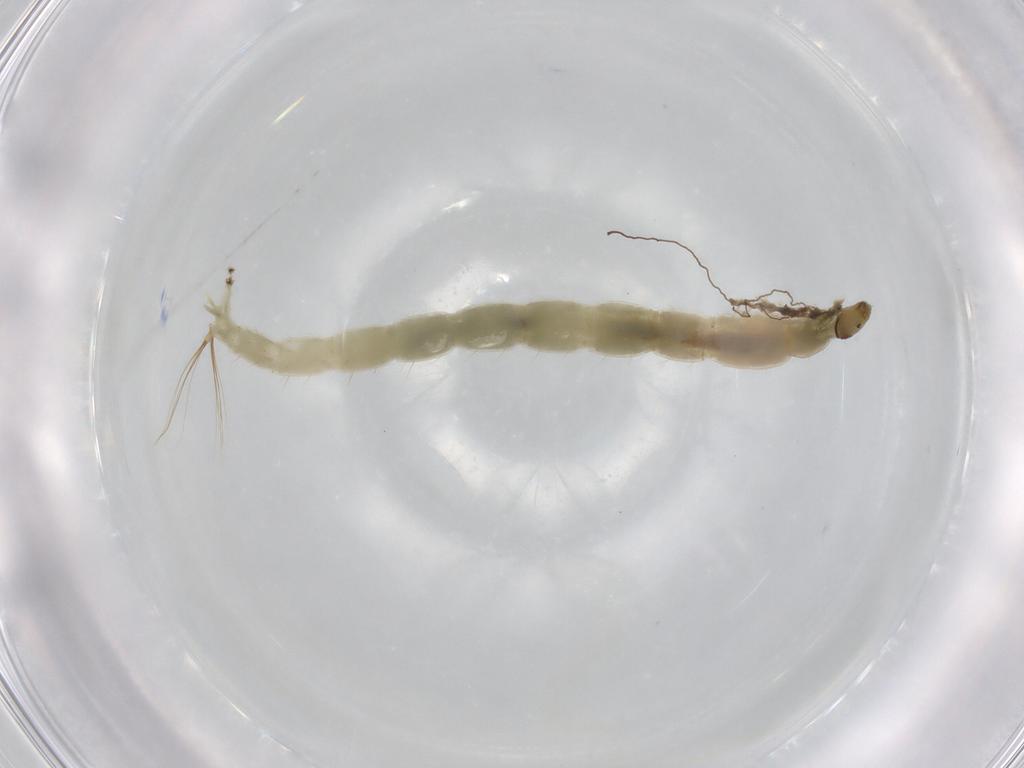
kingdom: Animalia
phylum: Arthropoda
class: Insecta
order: Diptera
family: Chironomidae
